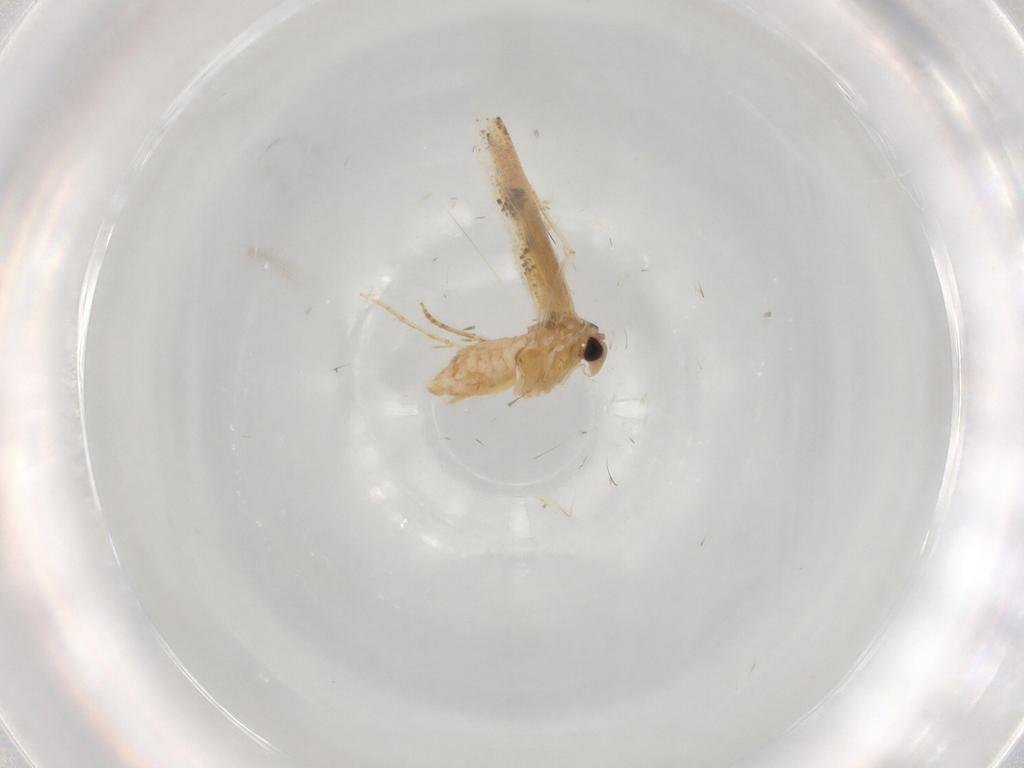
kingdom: Animalia
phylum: Arthropoda
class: Insecta
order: Lepidoptera
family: Bucculatricidae
